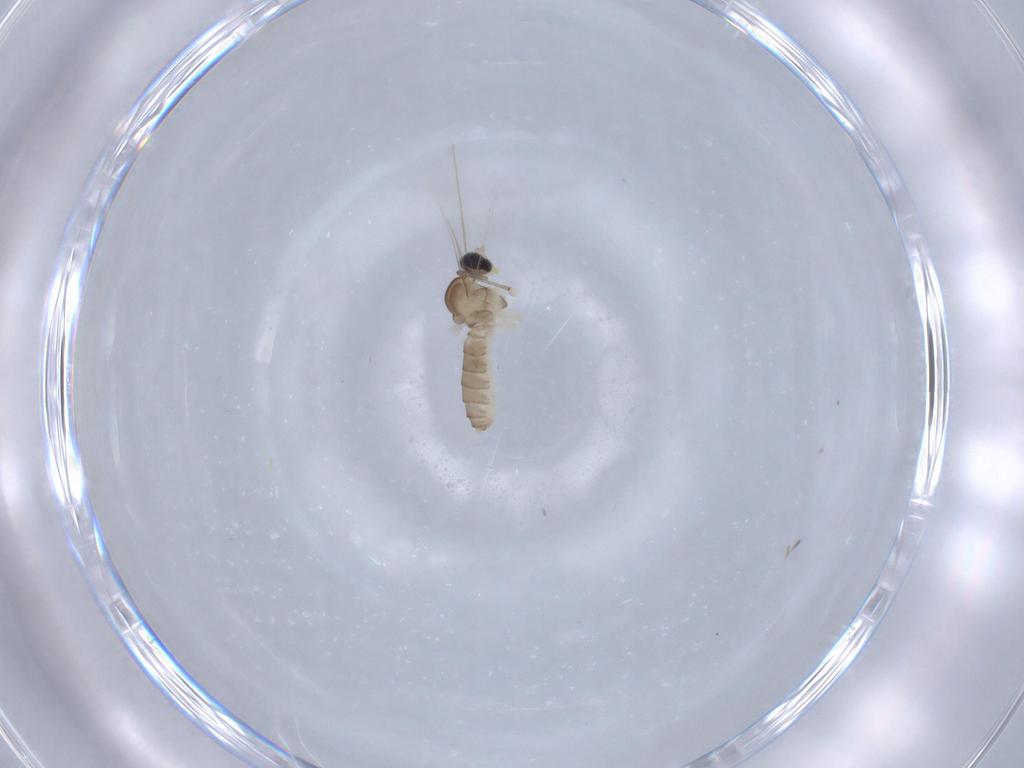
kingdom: Animalia
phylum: Arthropoda
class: Insecta
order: Diptera
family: Cecidomyiidae
